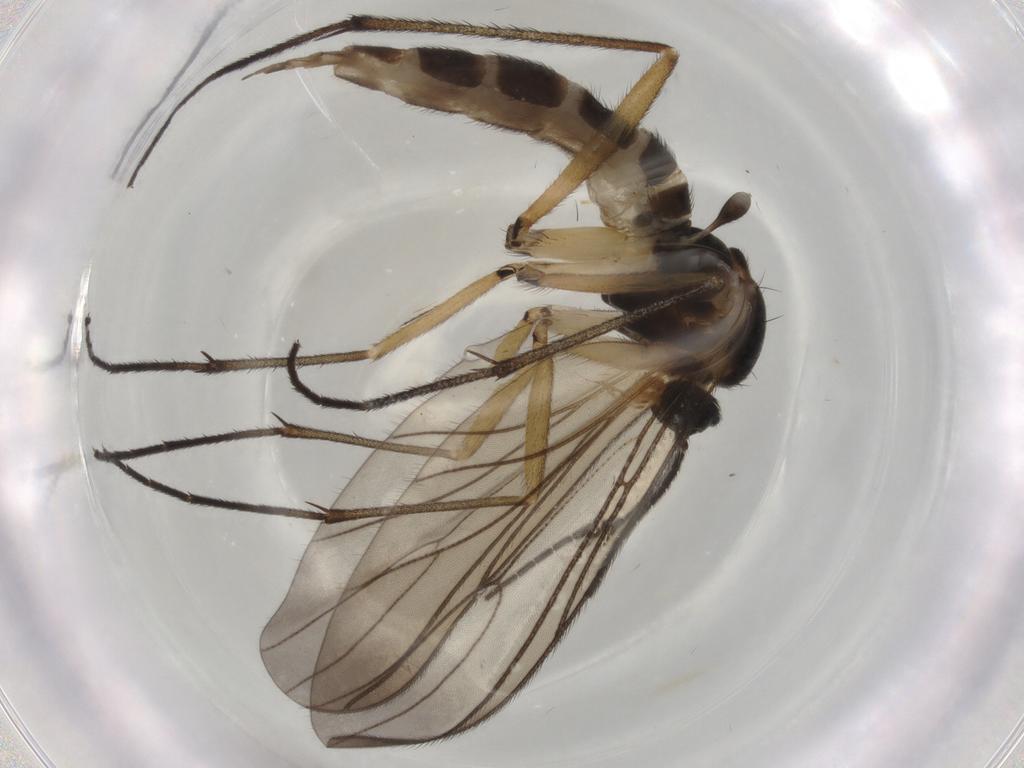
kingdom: Animalia
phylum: Arthropoda
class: Insecta
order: Diptera
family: Sciaridae
